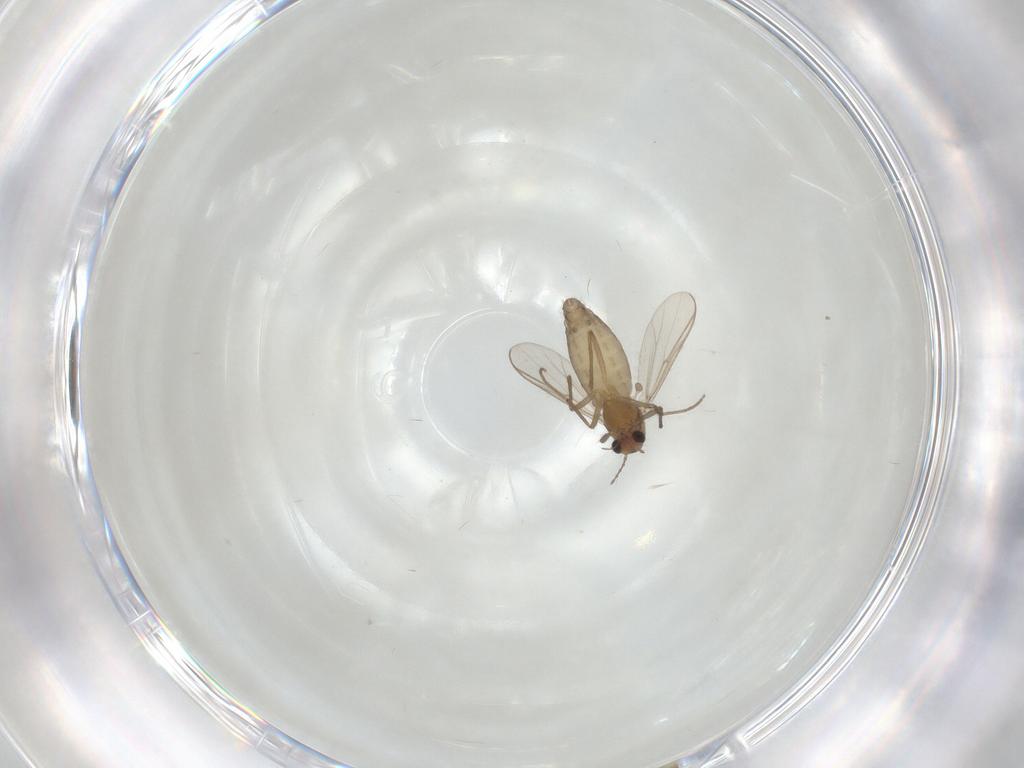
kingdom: Animalia
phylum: Arthropoda
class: Insecta
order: Diptera
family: Chironomidae
